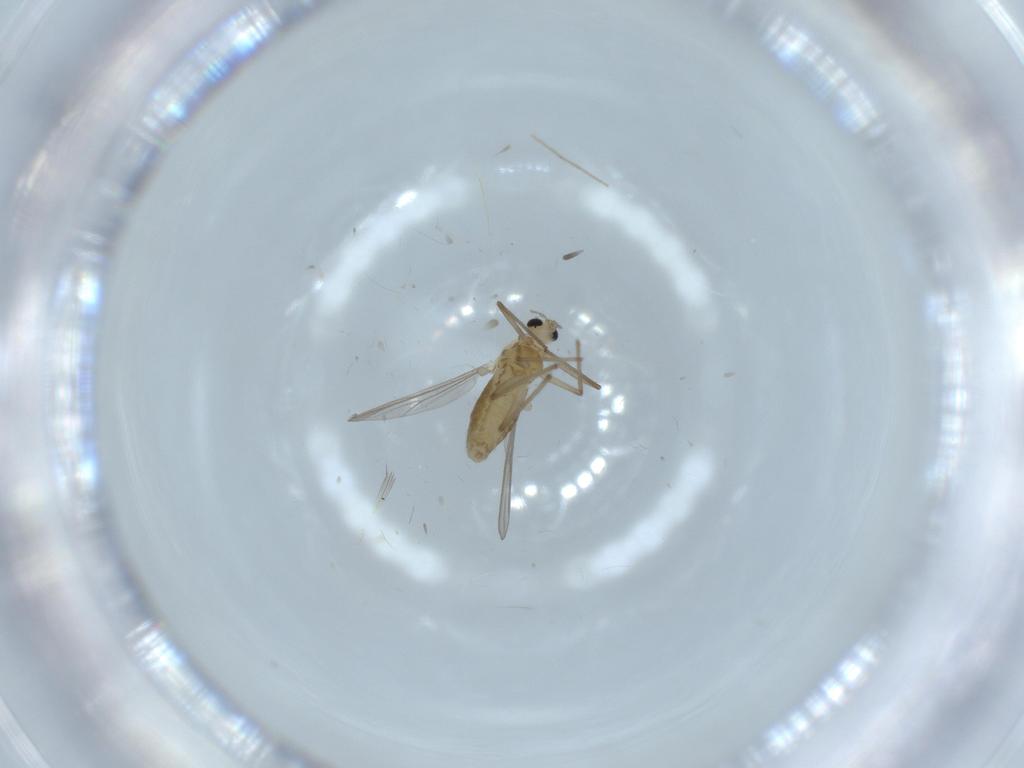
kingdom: Animalia
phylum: Arthropoda
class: Insecta
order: Diptera
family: Chironomidae
